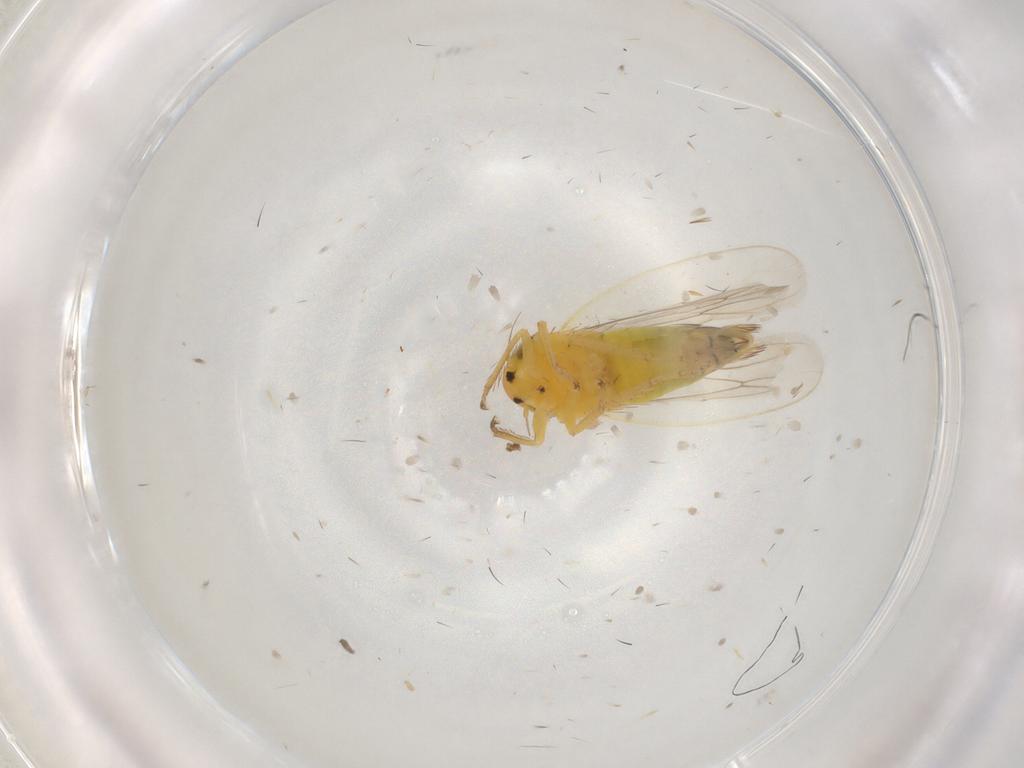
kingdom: Animalia
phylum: Arthropoda
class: Insecta
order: Hemiptera
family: Cicadellidae
